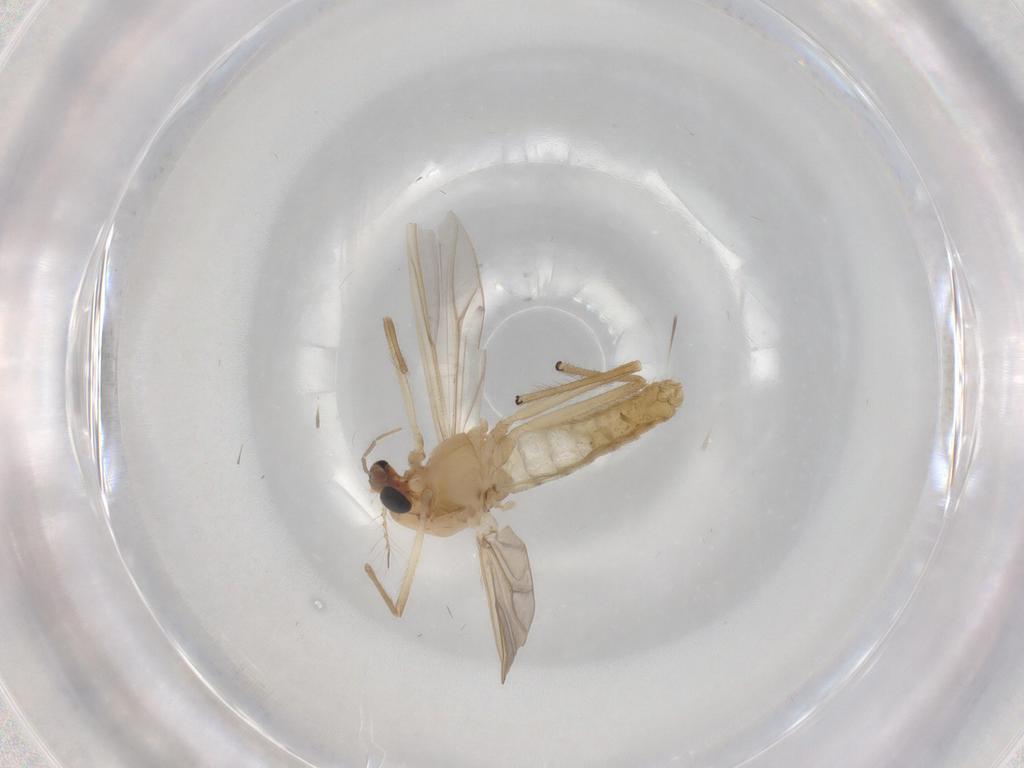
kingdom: Animalia
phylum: Arthropoda
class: Insecta
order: Diptera
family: Chironomidae
